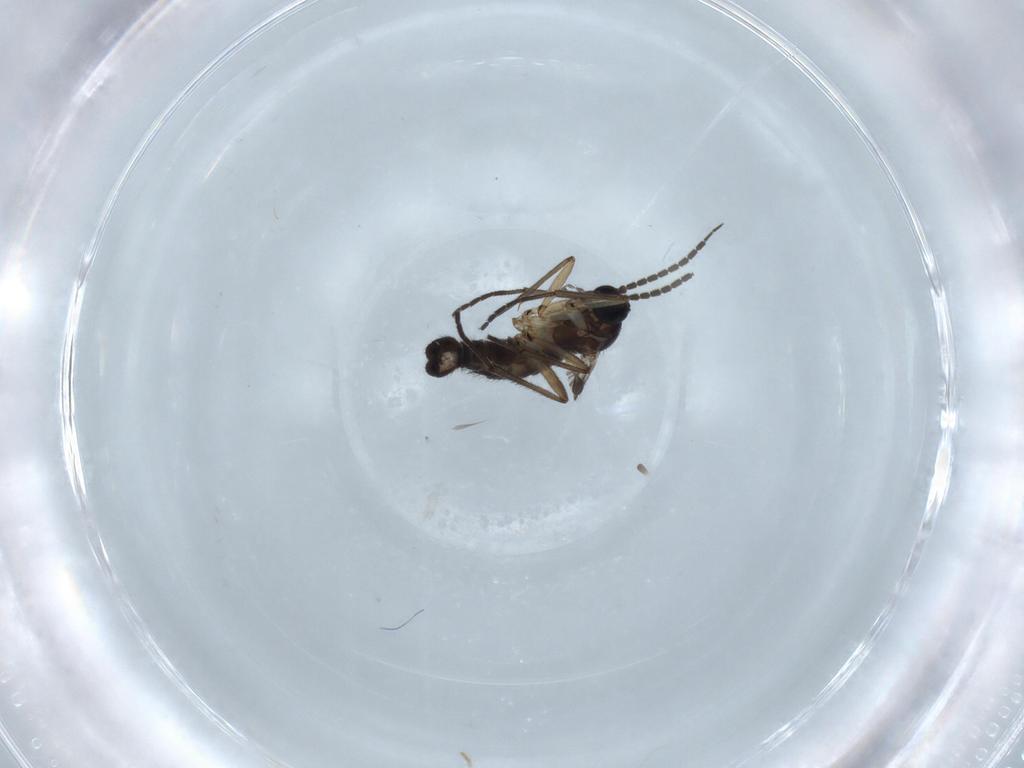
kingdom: Animalia
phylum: Arthropoda
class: Insecta
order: Diptera
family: Sciaridae
